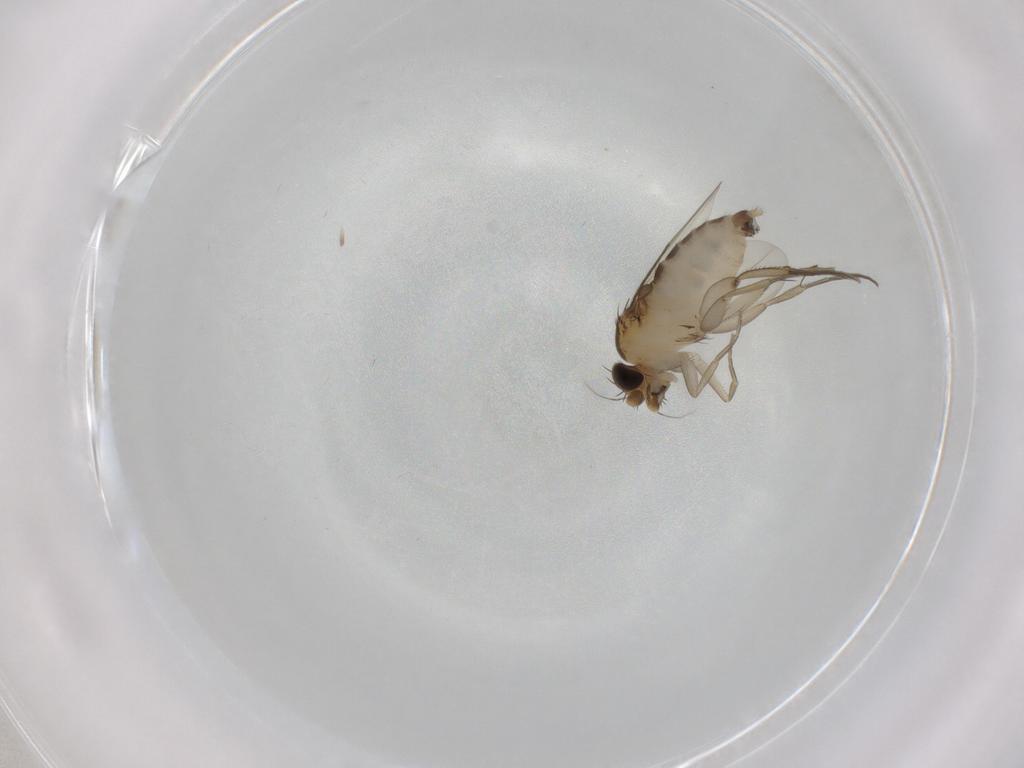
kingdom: Animalia
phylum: Arthropoda
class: Insecta
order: Diptera
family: Phoridae
